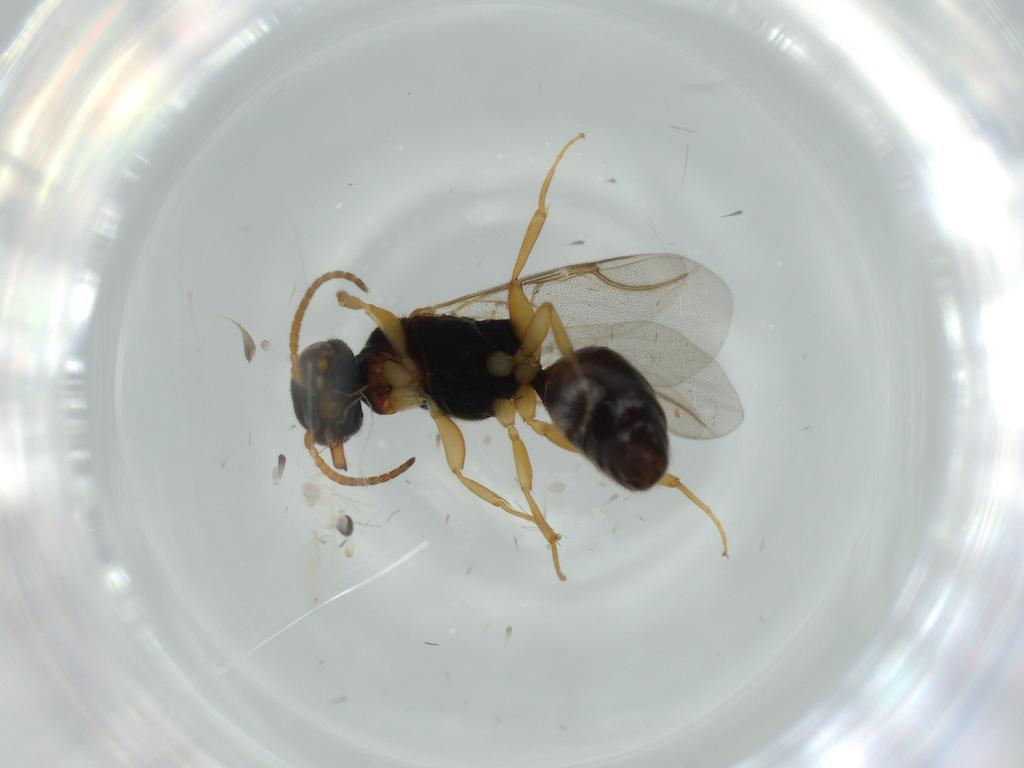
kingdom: Animalia
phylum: Arthropoda
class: Insecta
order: Hymenoptera
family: Bethylidae
